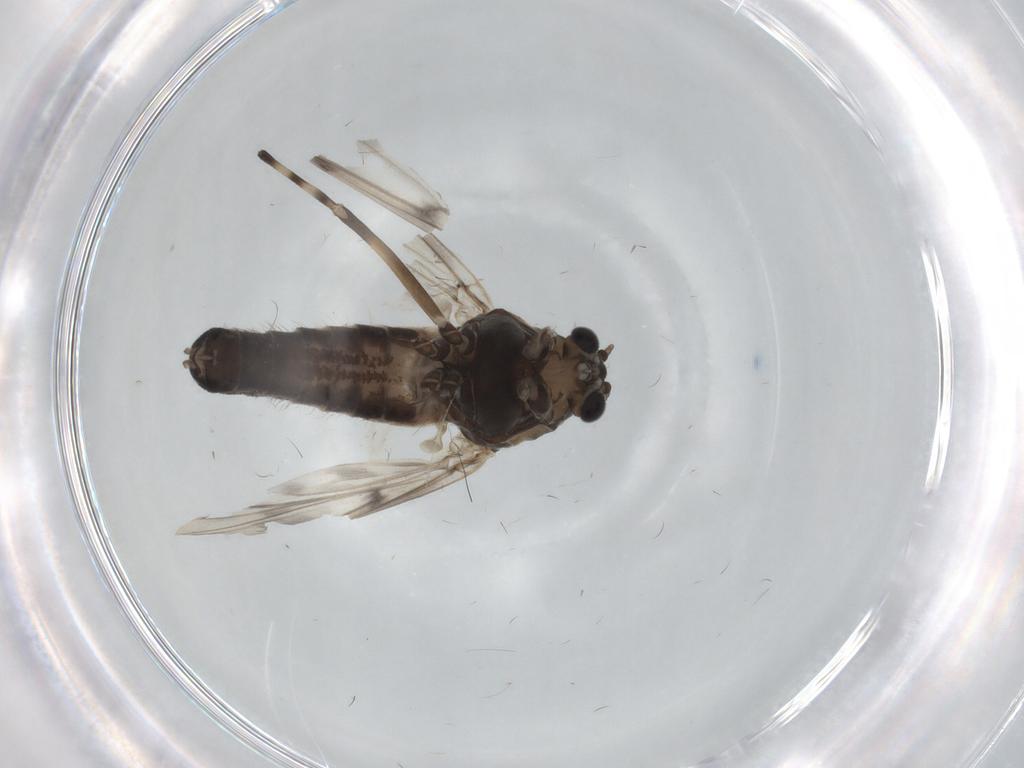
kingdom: Animalia
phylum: Arthropoda
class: Insecta
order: Diptera
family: Chironomidae
